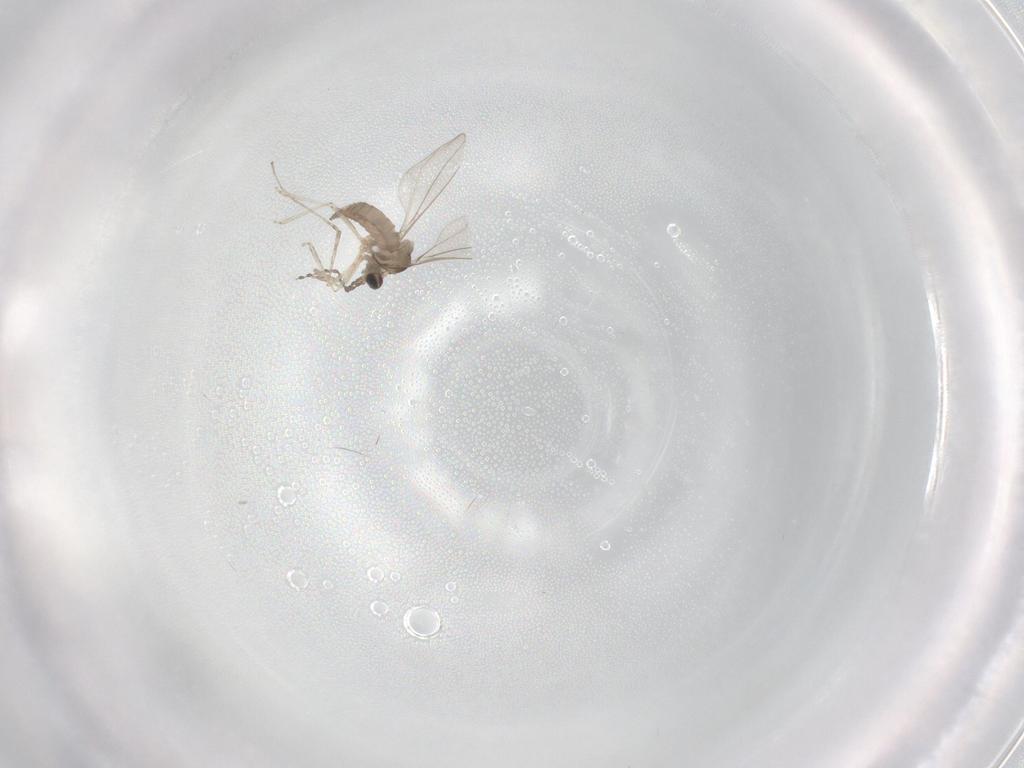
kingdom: Animalia
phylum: Arthropoda
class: Insecta
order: Diptera
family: Cecidomyiidae
